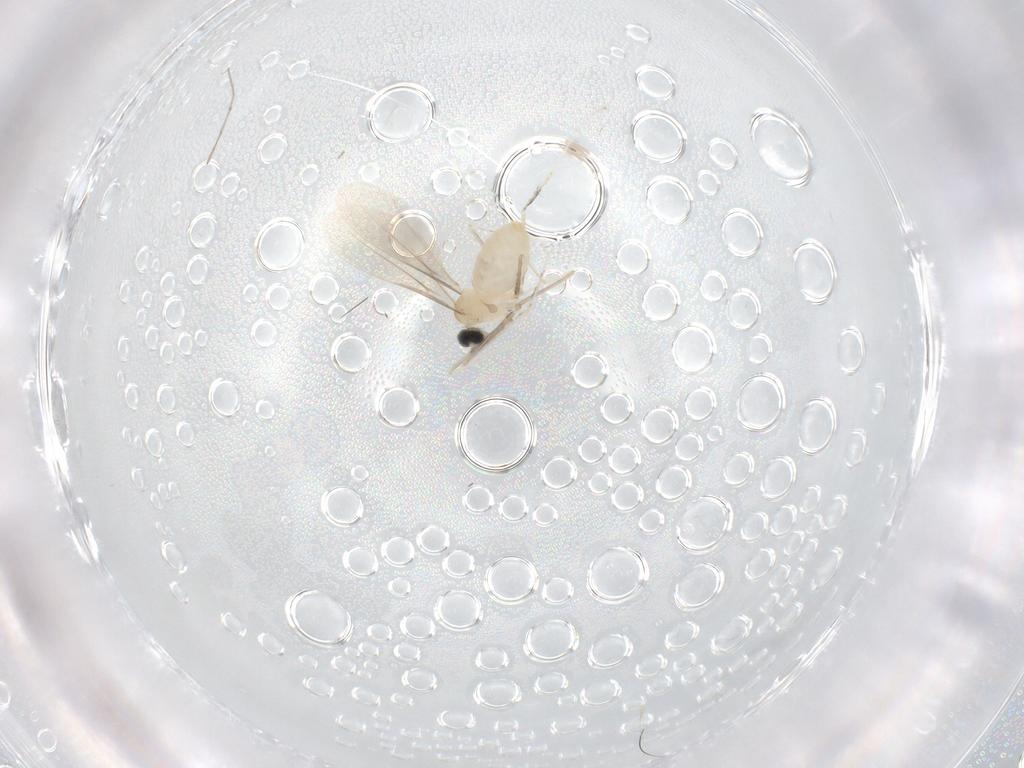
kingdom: Animalia
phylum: Arthropoda
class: Insecta
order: Diptera
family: Cecidomyiidae
